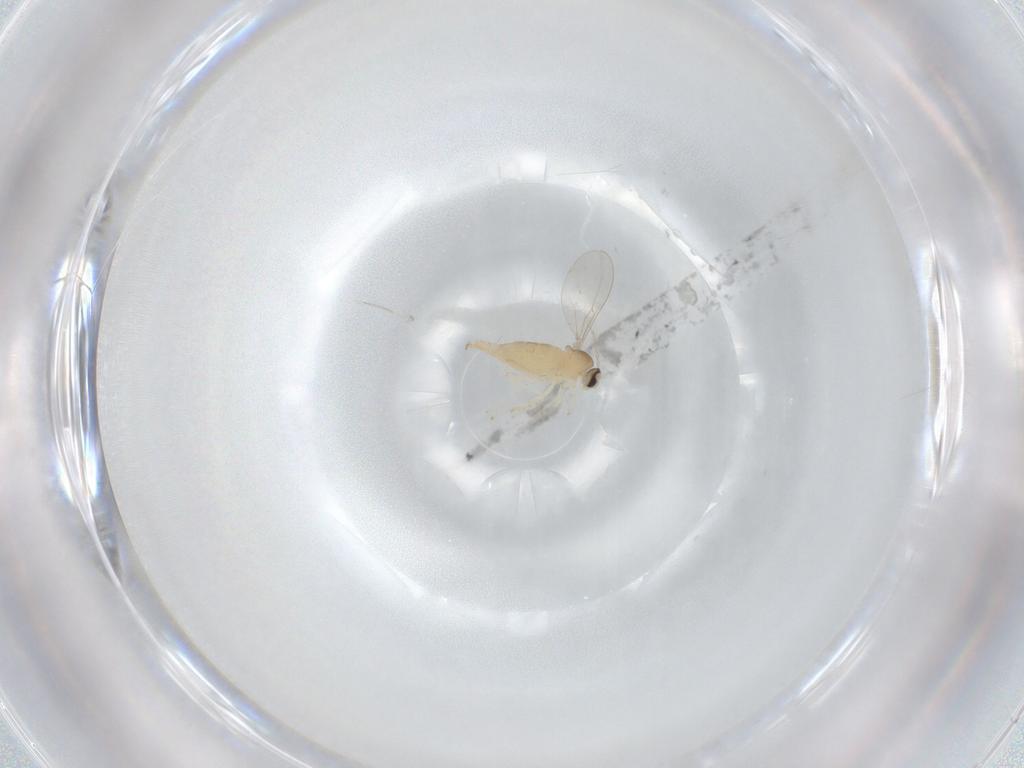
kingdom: Animalia
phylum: Arthropoda
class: Insecta
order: Diptera
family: Cecidomyiidae
